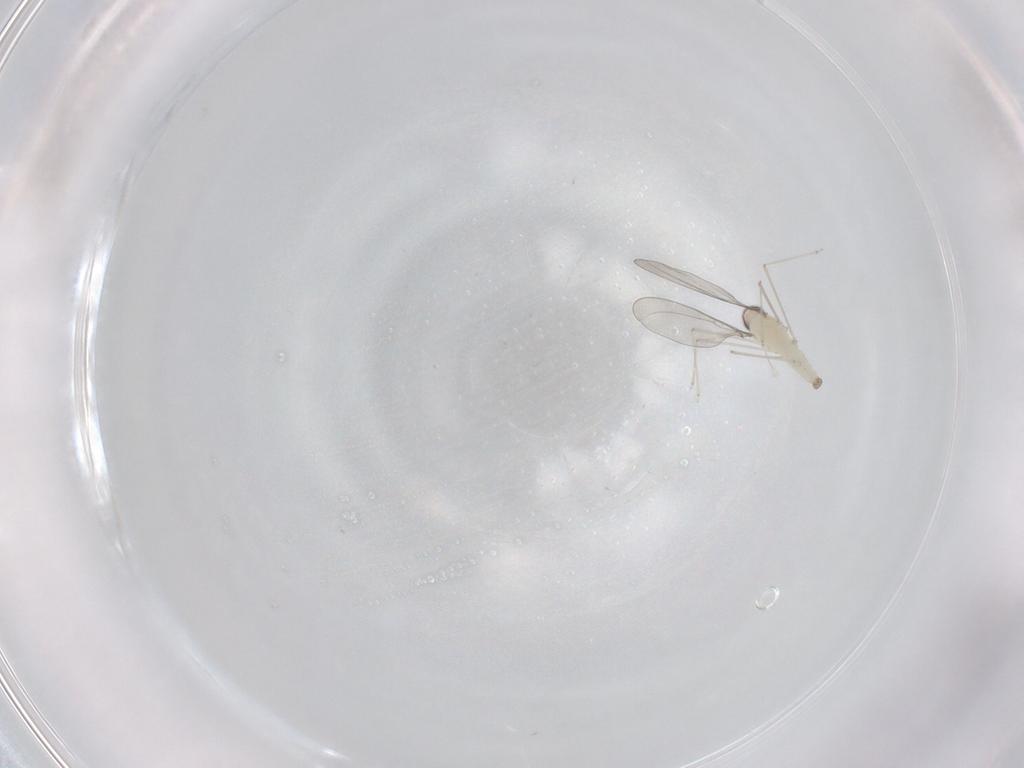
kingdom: Animalia
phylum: Arthropoda
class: Insecta
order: Diptera
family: Cecidomyiidae
